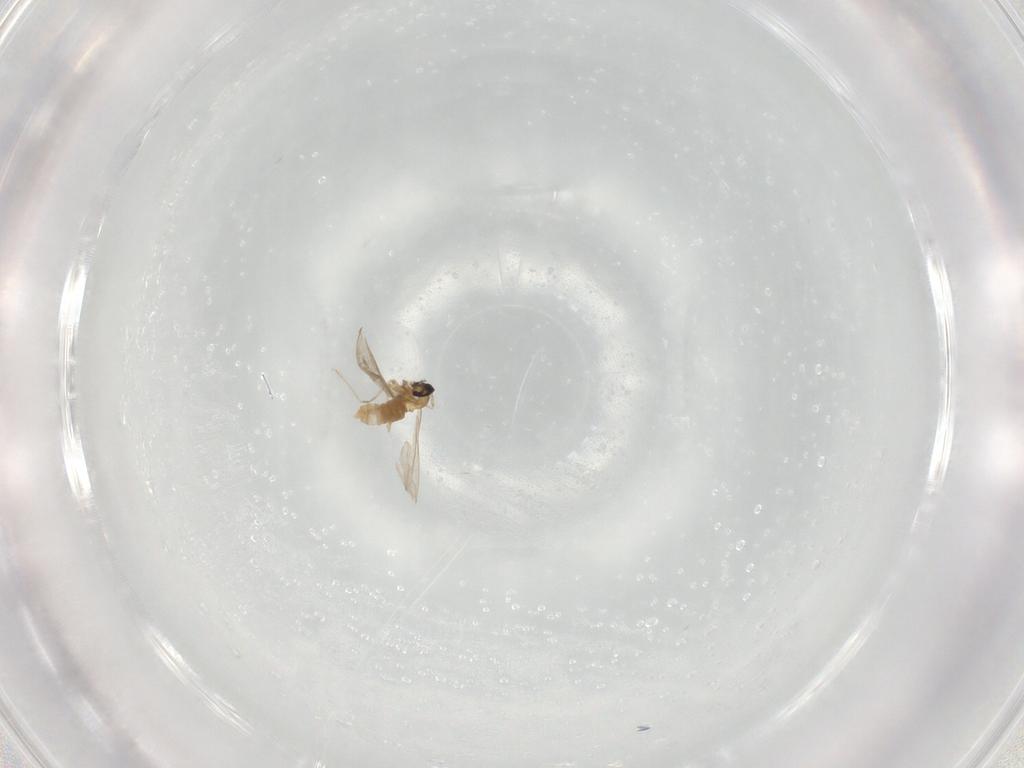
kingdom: Animalia
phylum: Arthropoda
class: Insecta
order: Diptera
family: Cecidomyiidae
